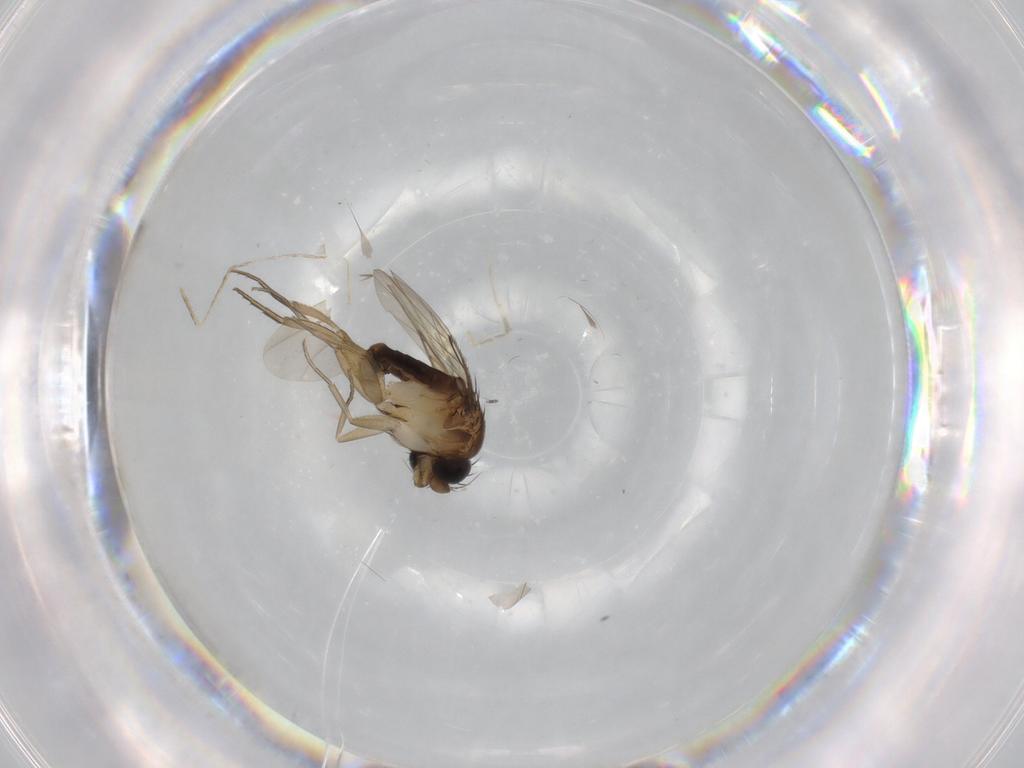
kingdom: Animalia
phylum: Arthropoda
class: Insecta
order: Diptera
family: Phoridae
